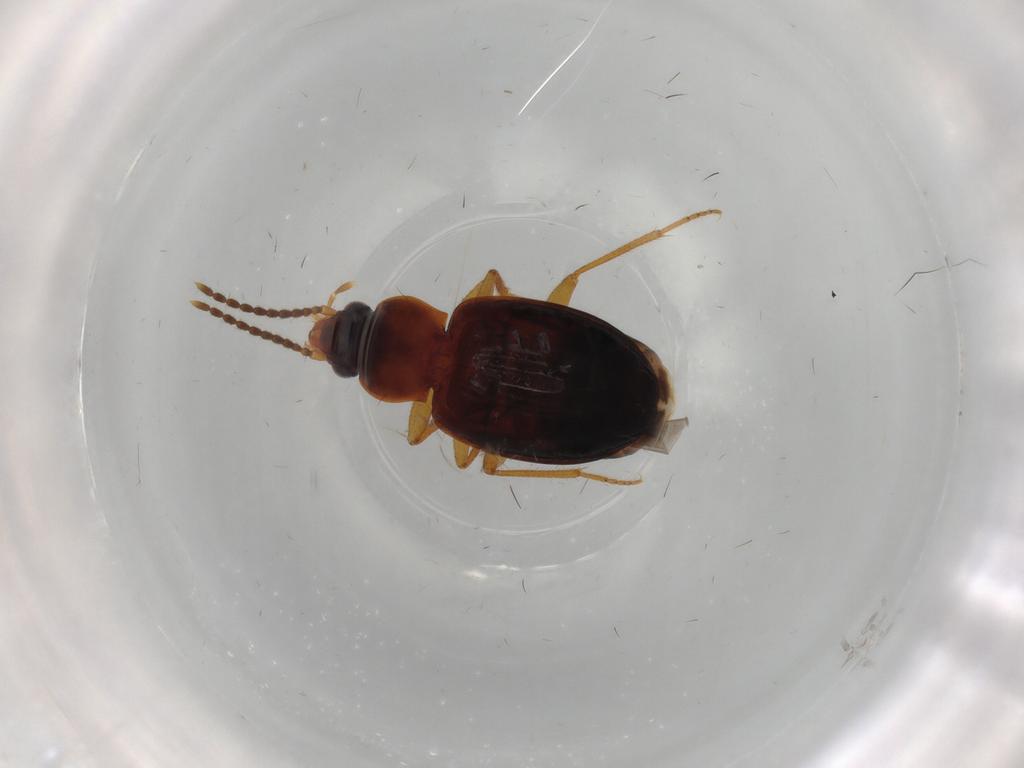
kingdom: Animalia
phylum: Arthropoda
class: Insecta
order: Coleoptera
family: Carabidae
